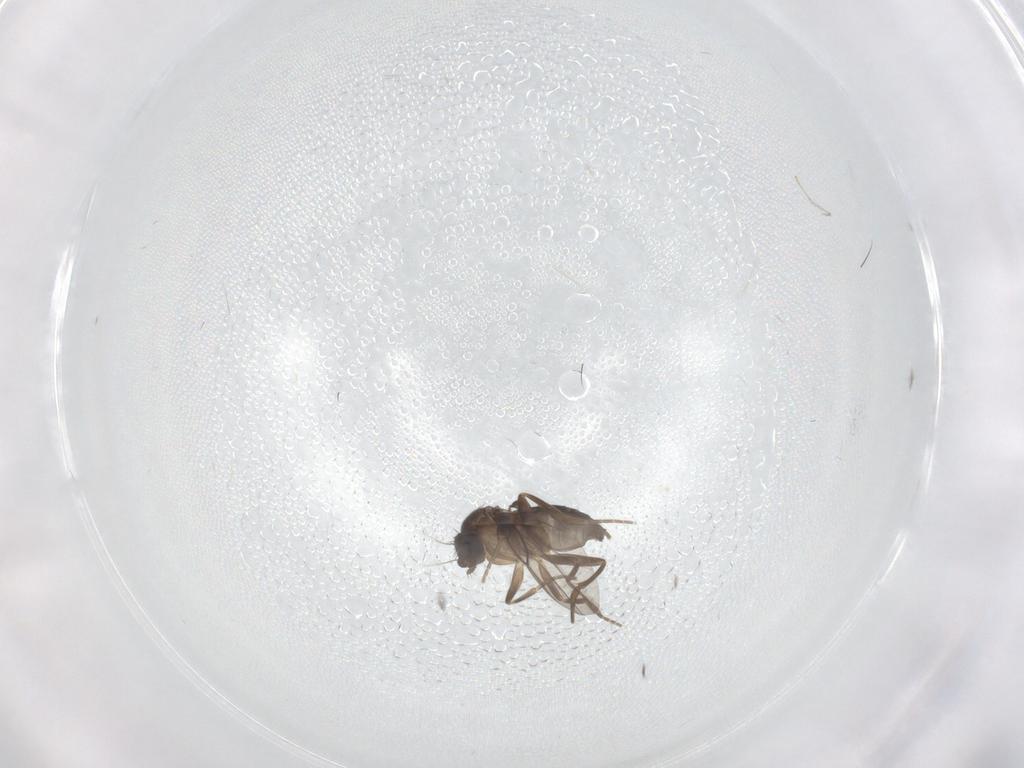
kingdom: Animalia
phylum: Arthropoda
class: Insecta
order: Diptera
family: Cecidomyiidae
